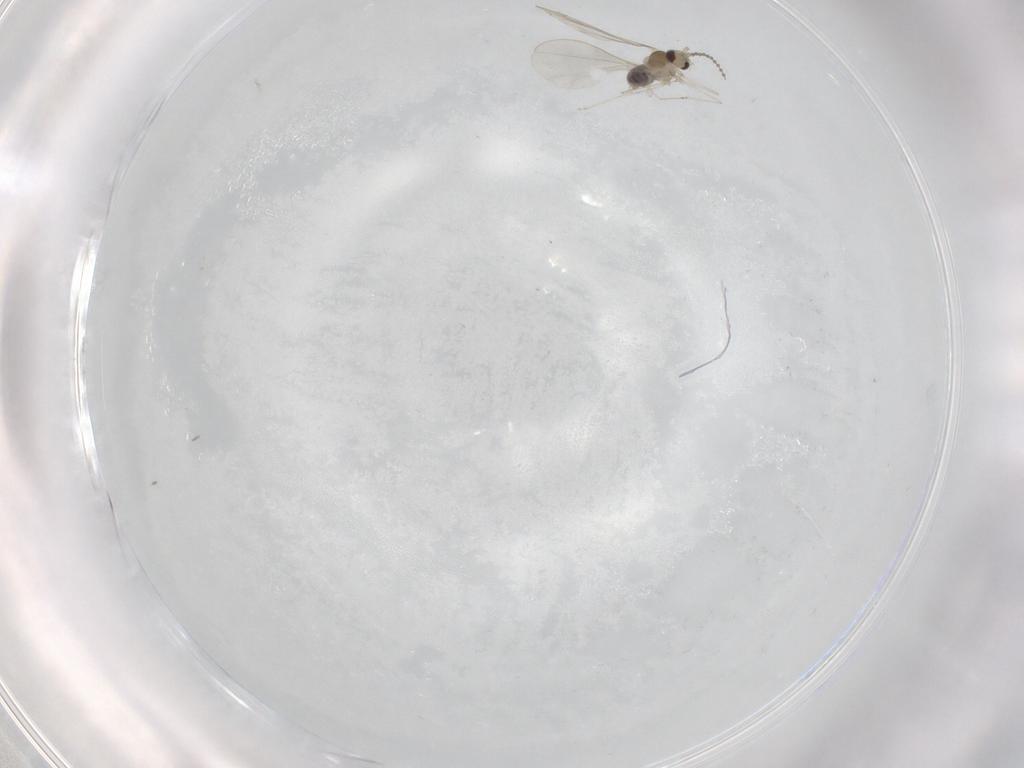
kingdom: Animalia
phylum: Arthropoda
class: Insecta
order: Diptera
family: Cecidomyiidae
